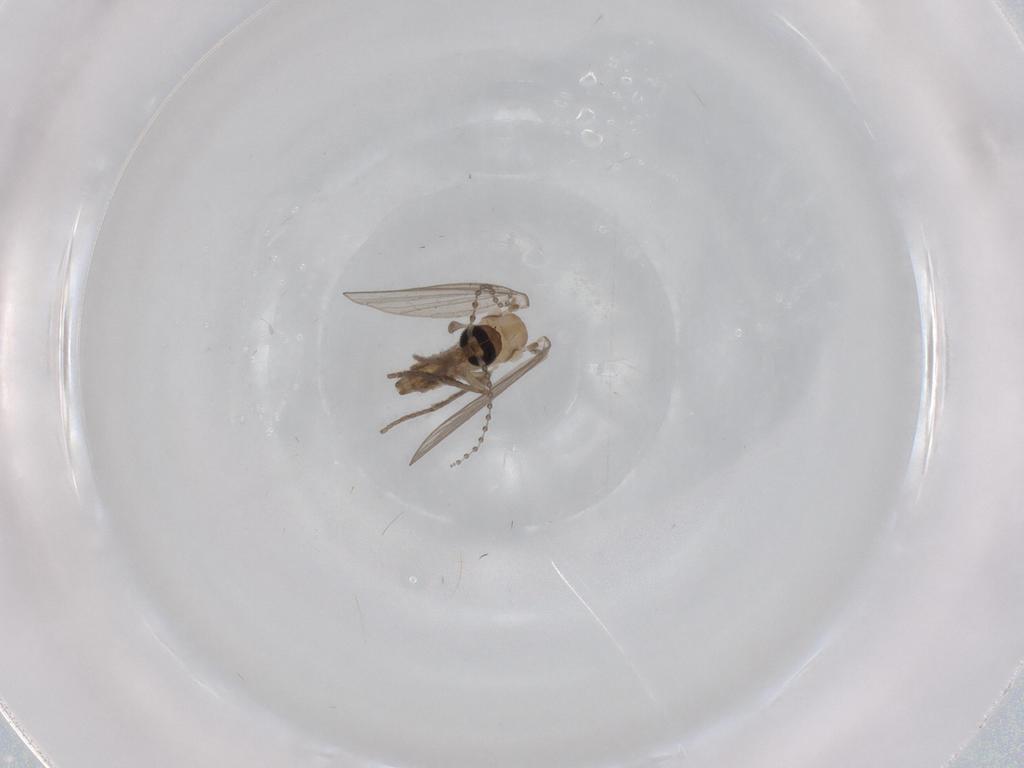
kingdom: Animalia
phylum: Arthropoda
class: Insecta
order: Diptera
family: Psychodidae
